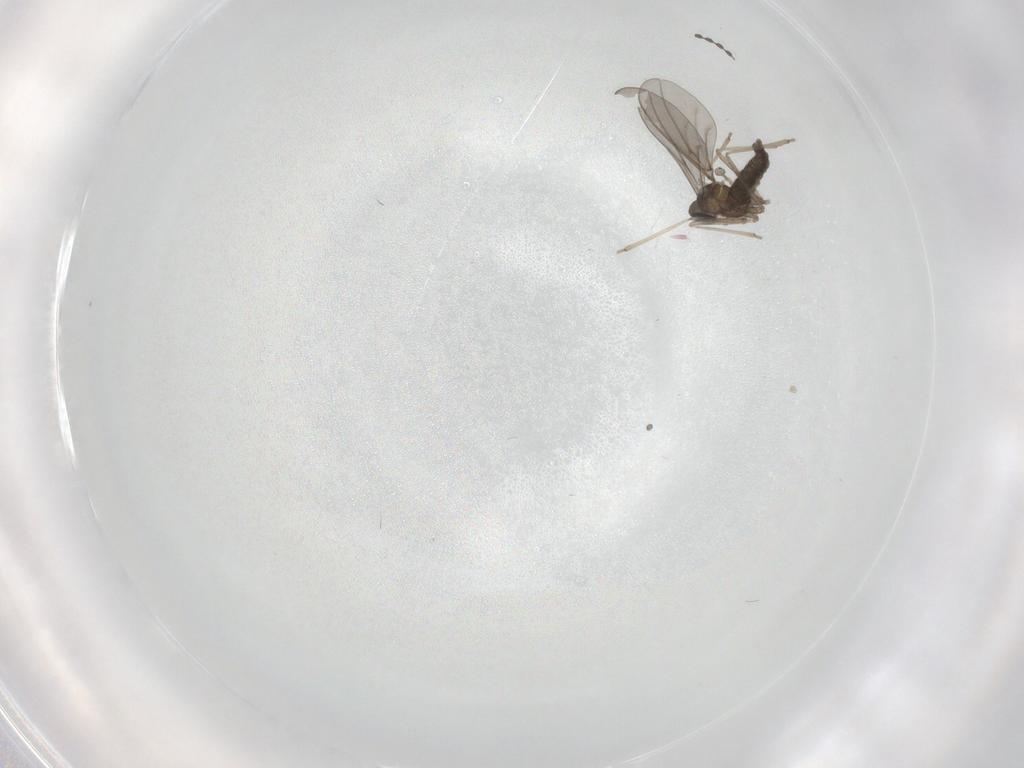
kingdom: Animalia
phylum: Arthropoda
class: Insecta
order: Diptera
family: Cecidomyiidae
